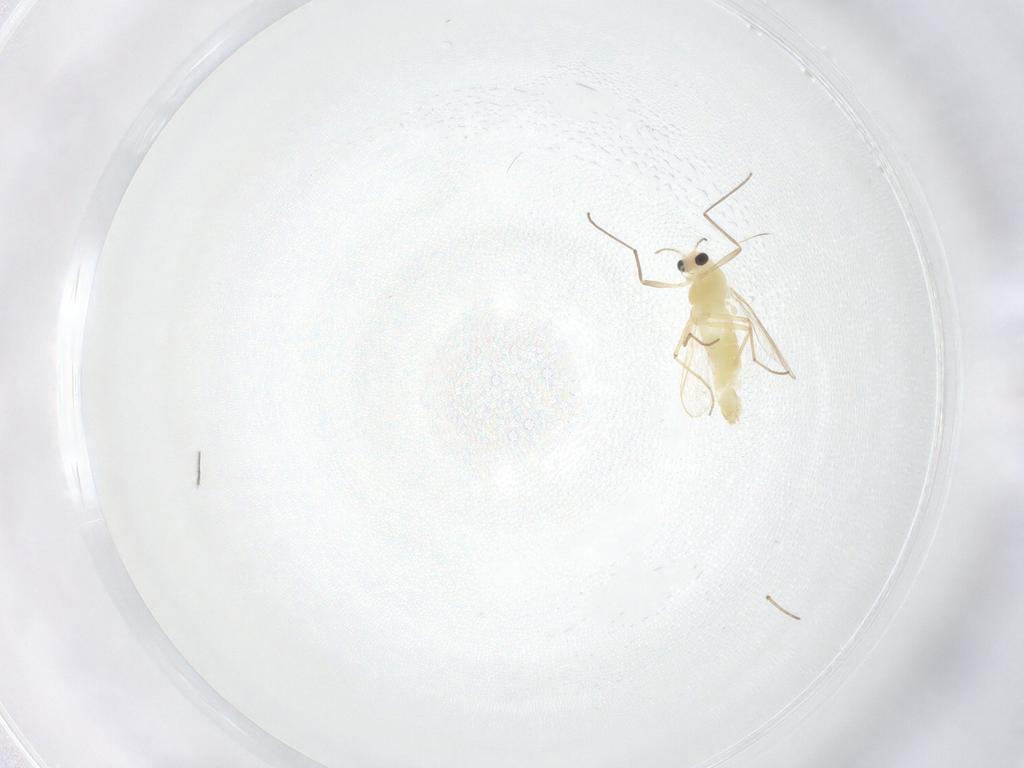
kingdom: Animalia
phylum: Arthropoda
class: Insecta
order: Diptera
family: Chironomidae
